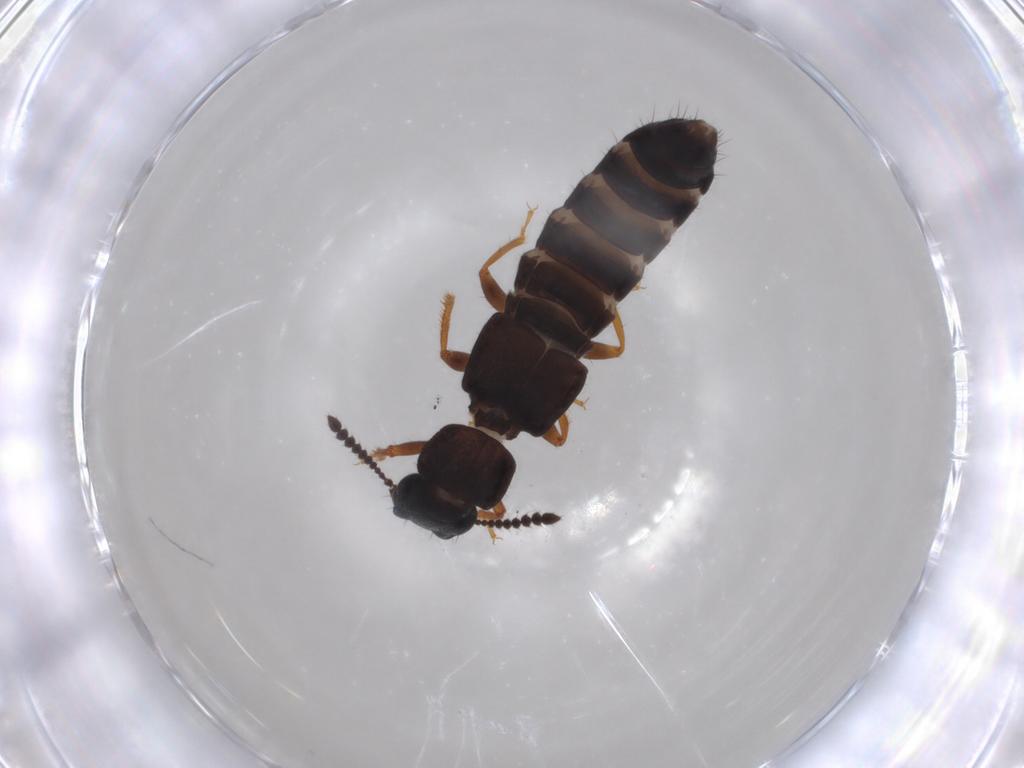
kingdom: Animalia
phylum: Arthropoda
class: Insecta
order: Coleoptera
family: Staphylinidae
